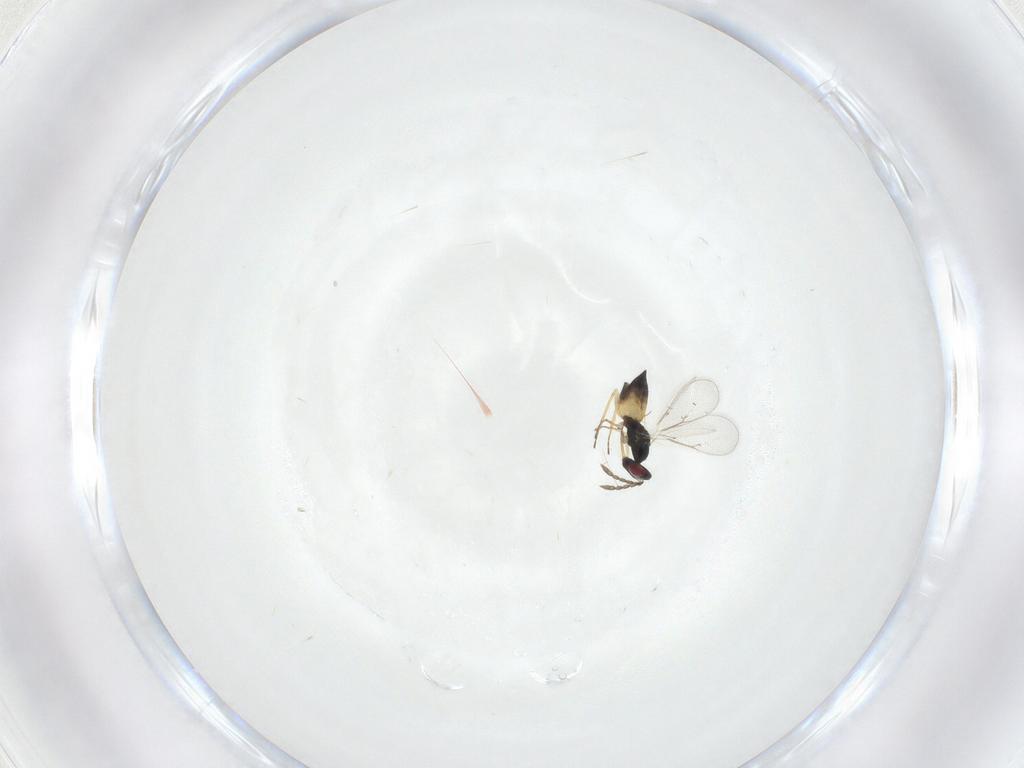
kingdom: Animalia
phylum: Arthropoda
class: Insecta
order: Hymenoptera
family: Eulophidae
